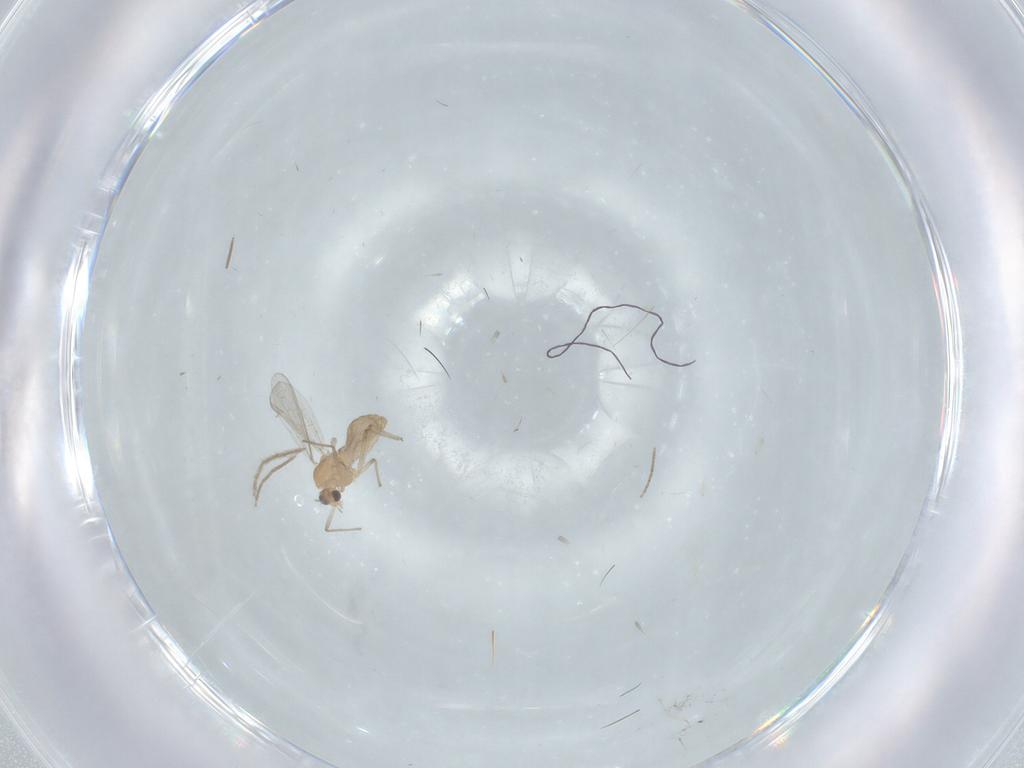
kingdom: Animalia
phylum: Arthropoda
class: Insecta
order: Diptera
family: Chironomidae
